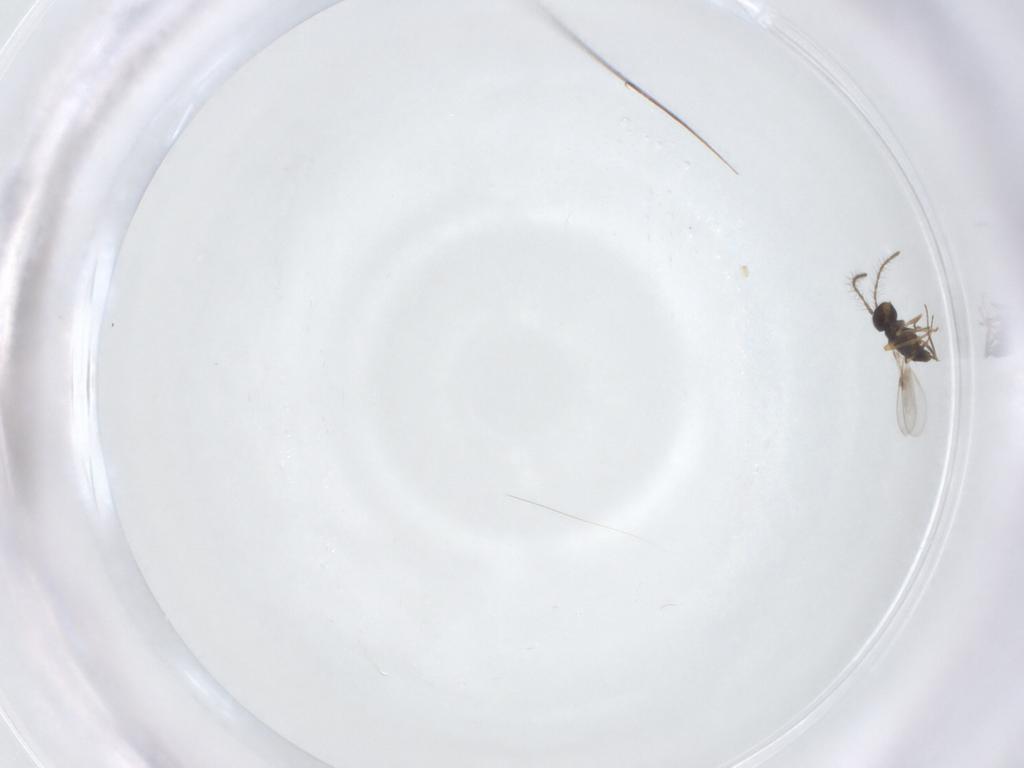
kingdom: Animalia
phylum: Arthropoda
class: Insecta
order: Hymenoptera
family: Encyrtidae
